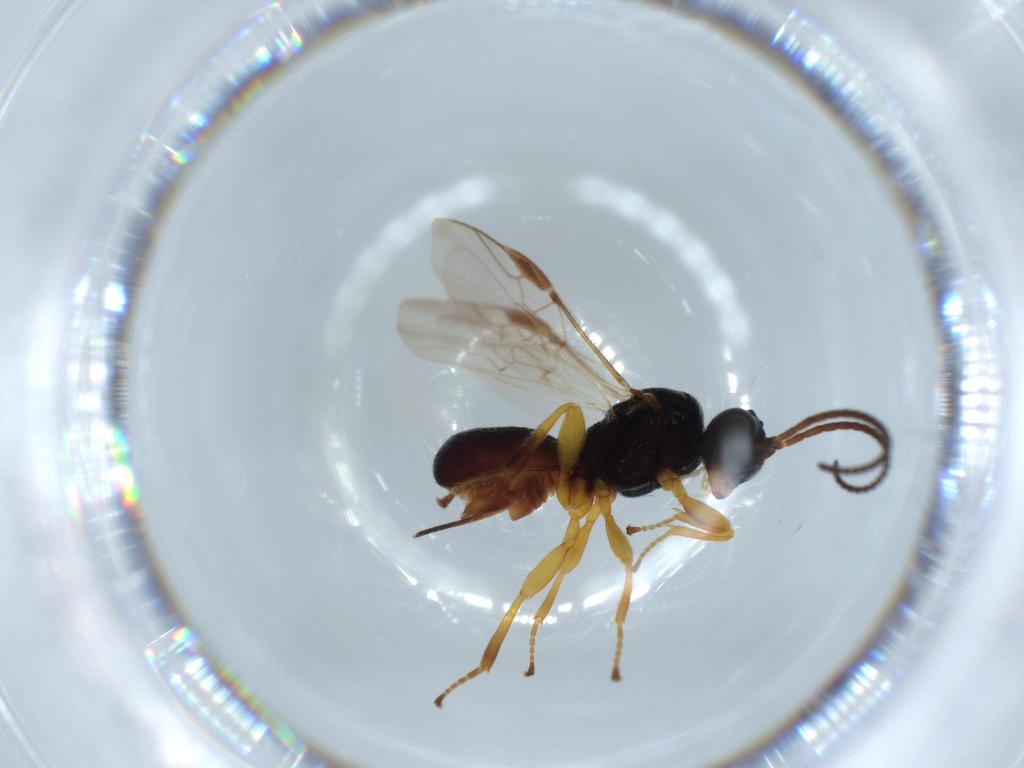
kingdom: Animalia
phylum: Arthropoda
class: Insecta
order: Hymenoptera
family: Braconidae
